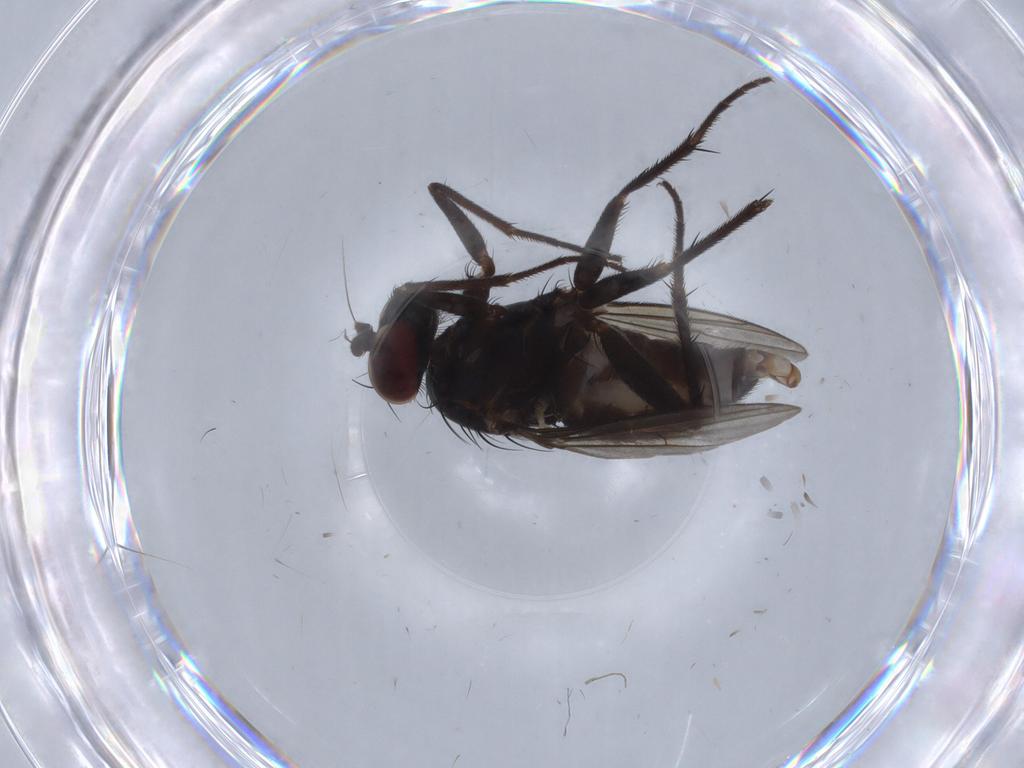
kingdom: Animalia
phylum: Arthropoda
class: Insecta
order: Diptera
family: Dolichopodidae
